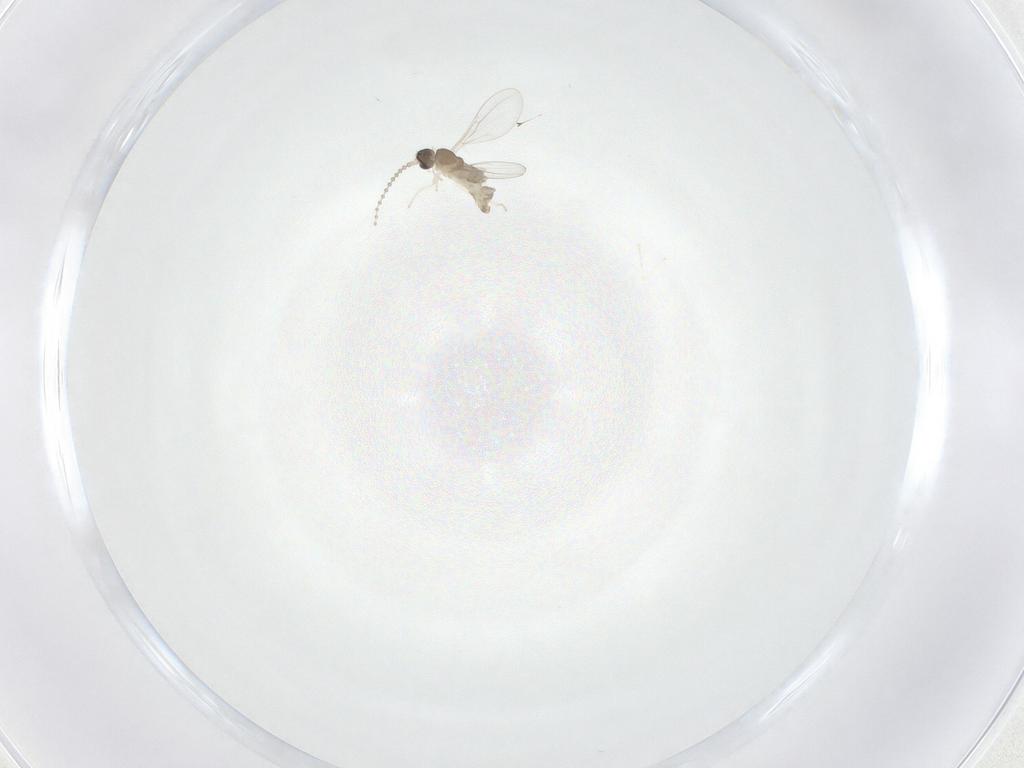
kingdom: Animalia
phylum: Arthropoda
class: Insecta
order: Diptera
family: Cecidomyiidae
